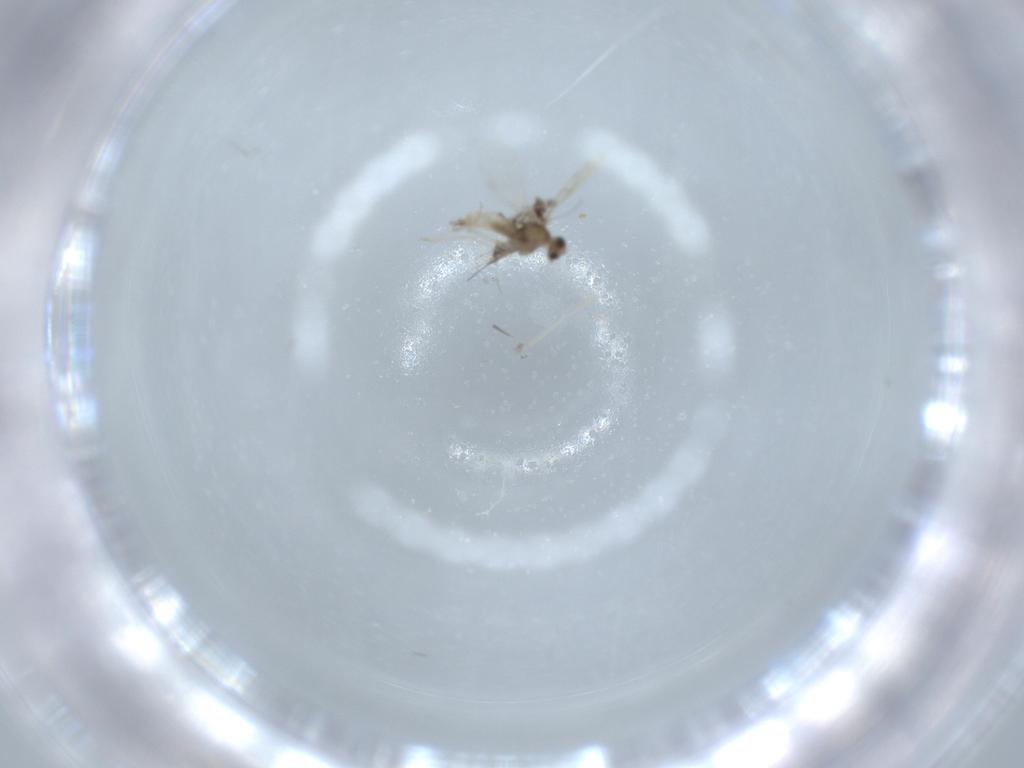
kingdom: Animalia
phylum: Arthropoda
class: Insecta
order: Diptera
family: Cecidomyiidae
